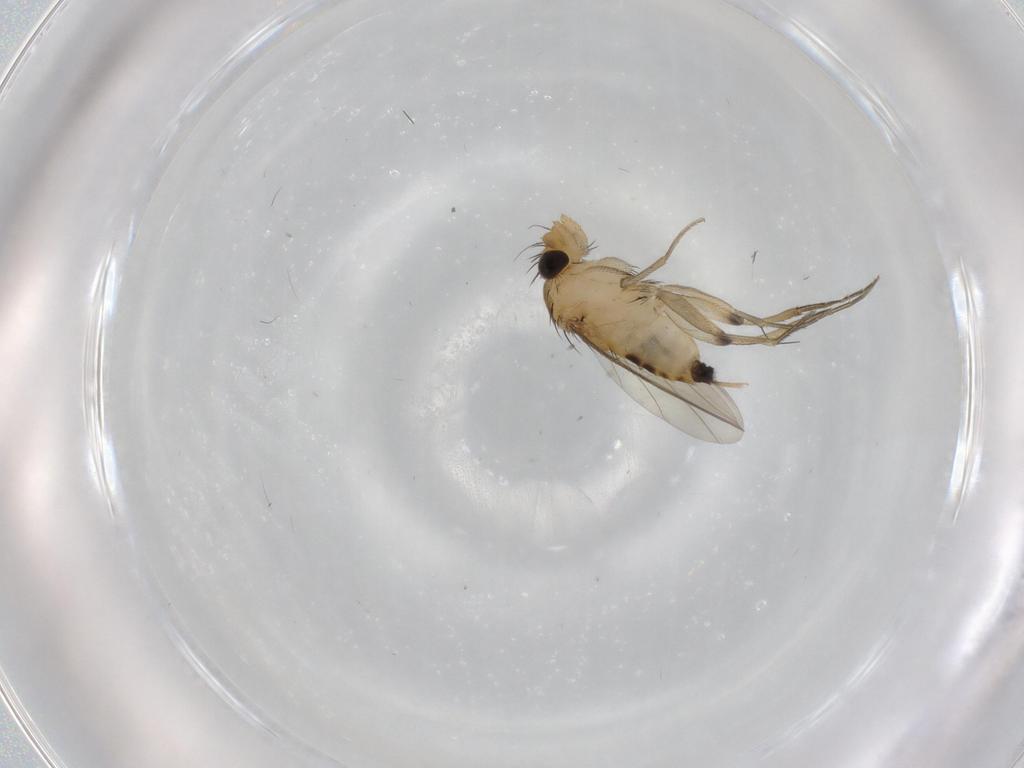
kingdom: Animalia
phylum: Arthropoda
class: Insecta
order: Diptera
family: Phoridae
